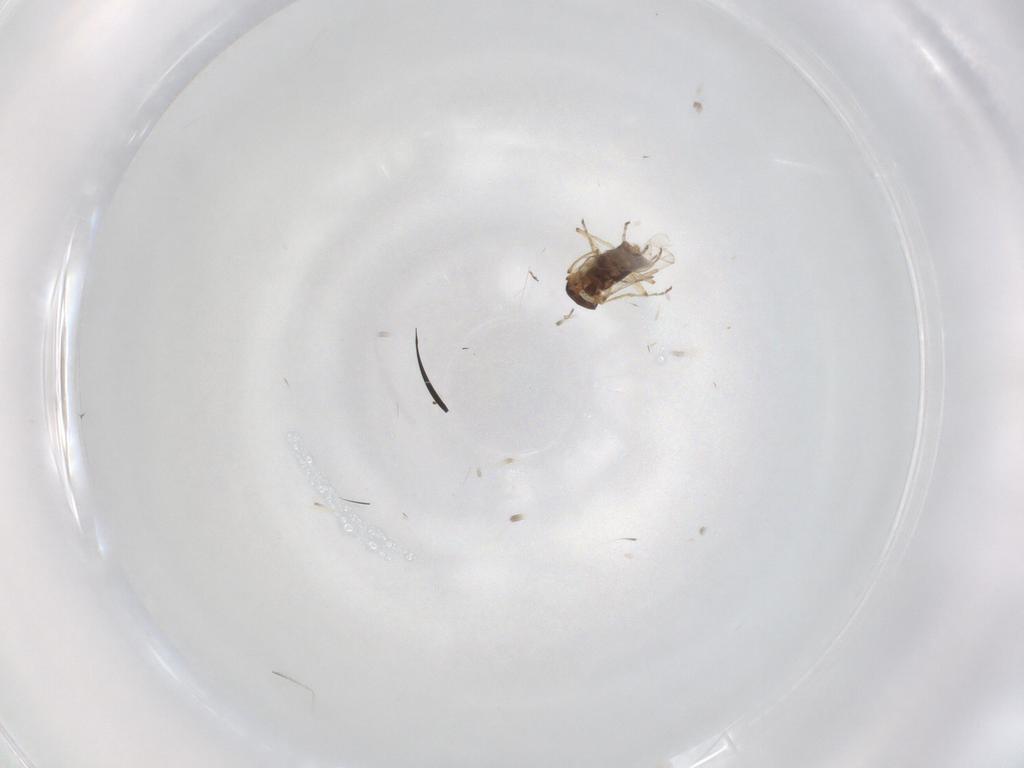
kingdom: Animalia
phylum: Arthropoda
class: Insecta
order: Diptera
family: Ceratopogonidae
